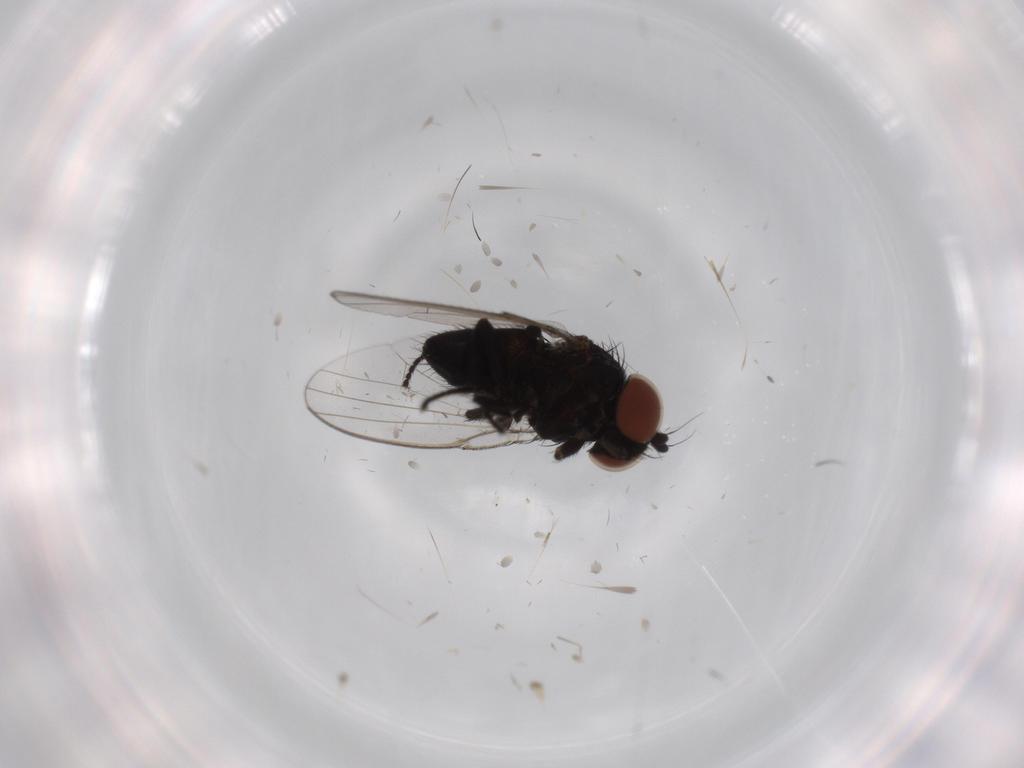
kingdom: Animalia
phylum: Arthropoda
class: Insecta
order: Diptera
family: Milichiidae
